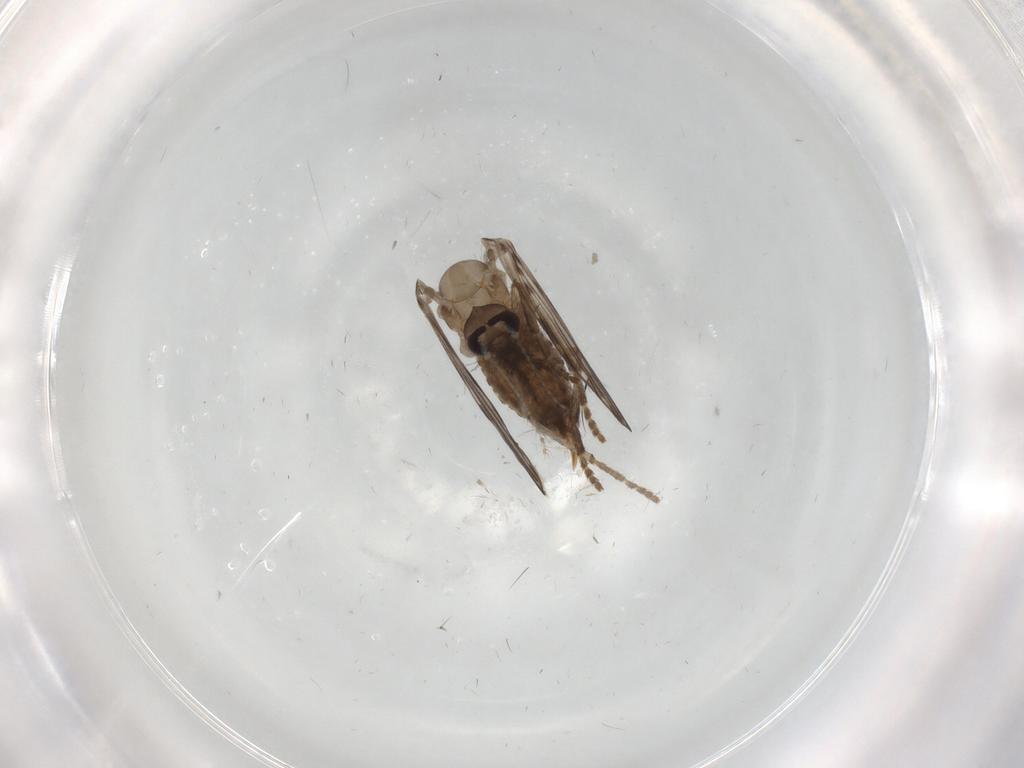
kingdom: Animalia
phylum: Arthropoda
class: Insecta
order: Diptera
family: Psychodidae
